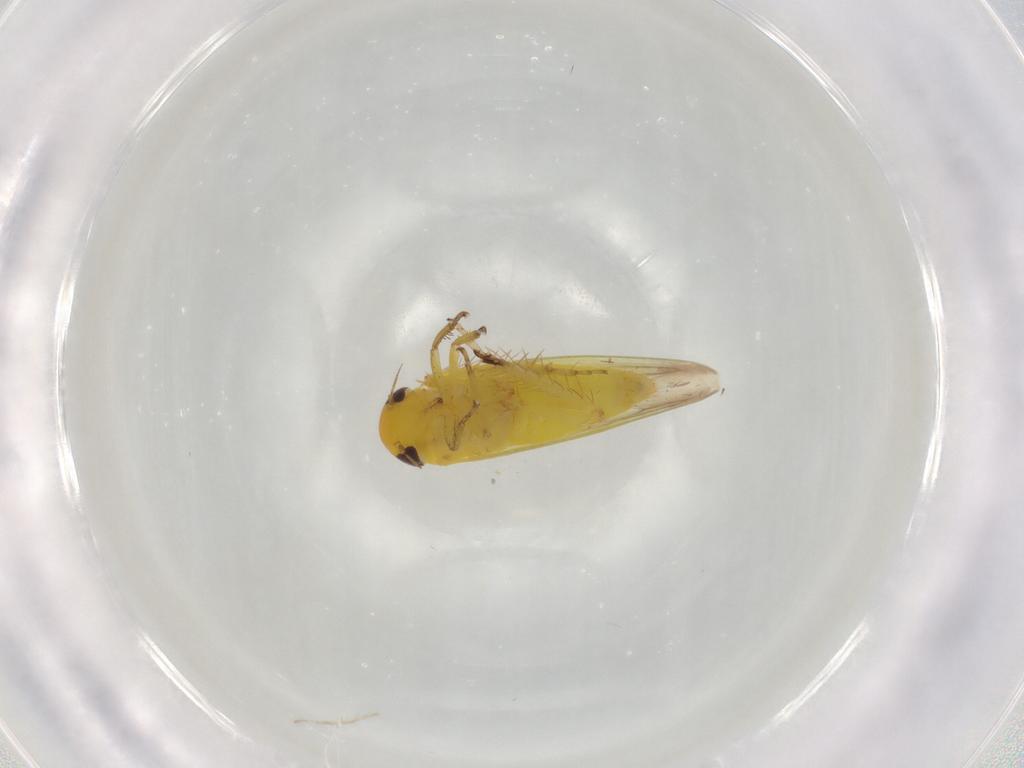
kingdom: Animalia
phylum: Arthropoda
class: Insecta
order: Hemiptera
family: Cicadellidae
